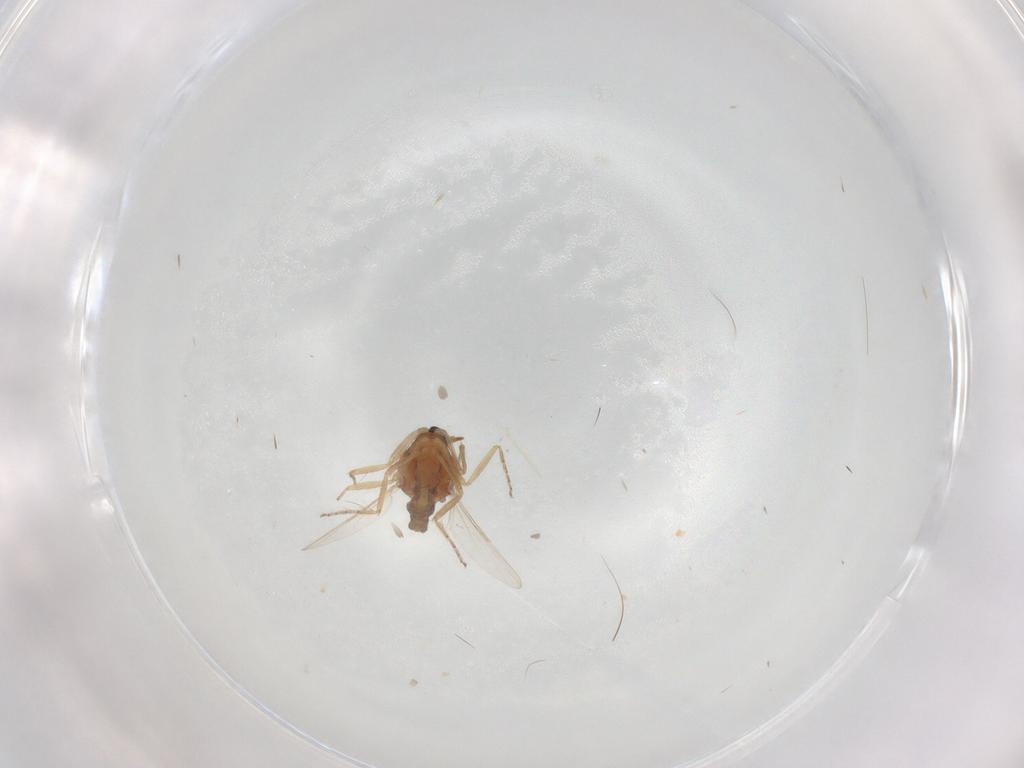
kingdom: Animalia
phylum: Arthropoda
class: Insecta
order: Diptera
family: Ceratopogonidae
